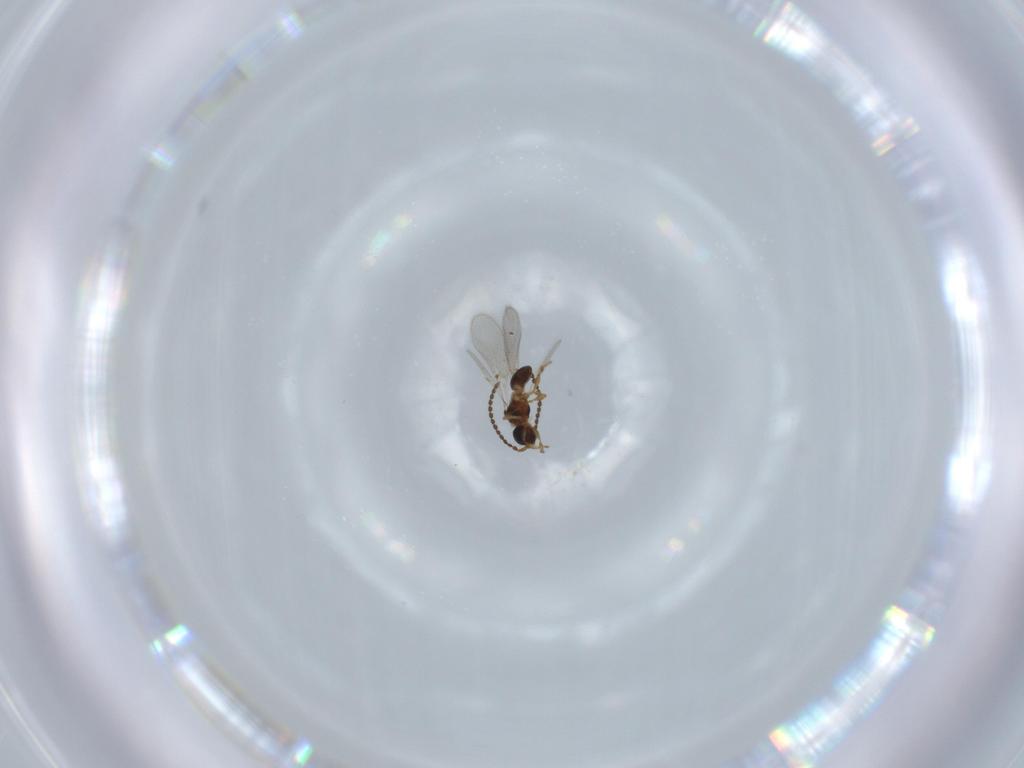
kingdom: Animalia
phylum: Arthropoda
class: Insecta
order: Hymenoptera
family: Diapriidae
